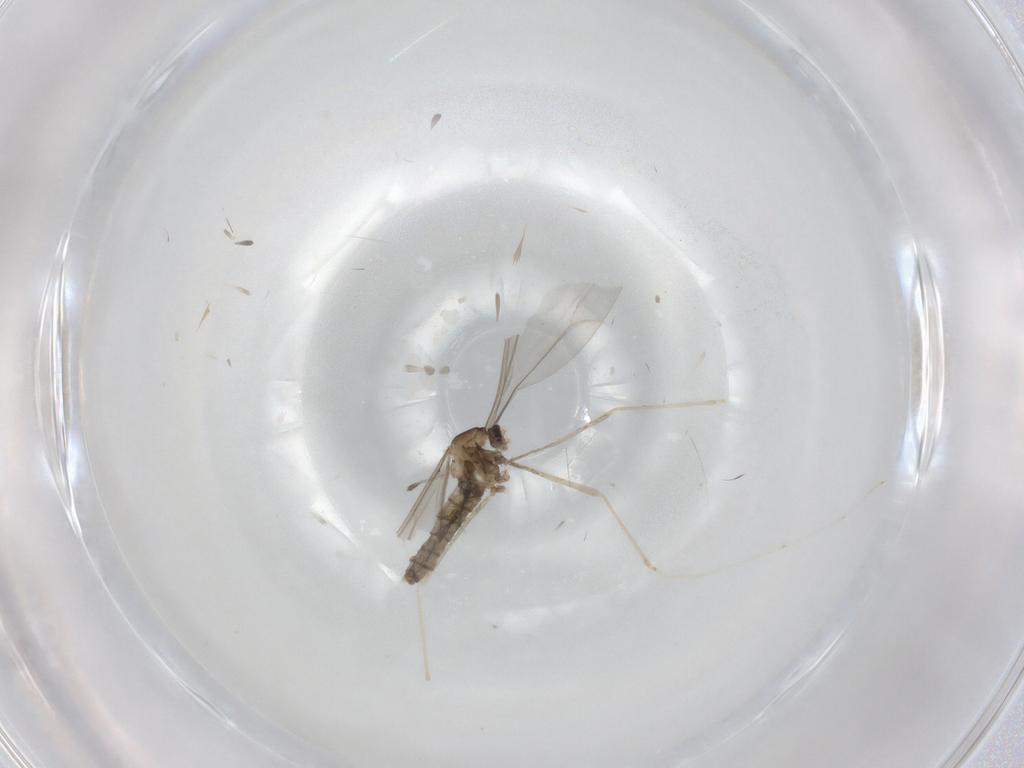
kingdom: Animalia
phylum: Arthropoda
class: Insecta
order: Diptera
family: Cecidomyiidae
